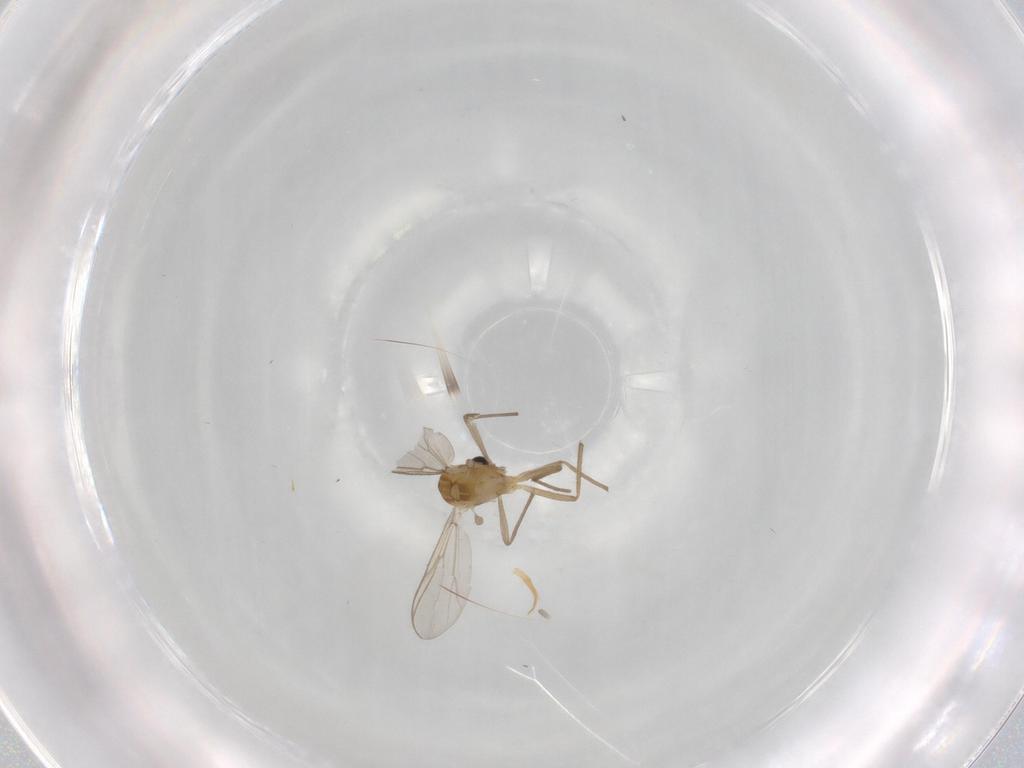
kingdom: Animalia
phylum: Arthropoda
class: Insecta
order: Diptera
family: Chironomidae
